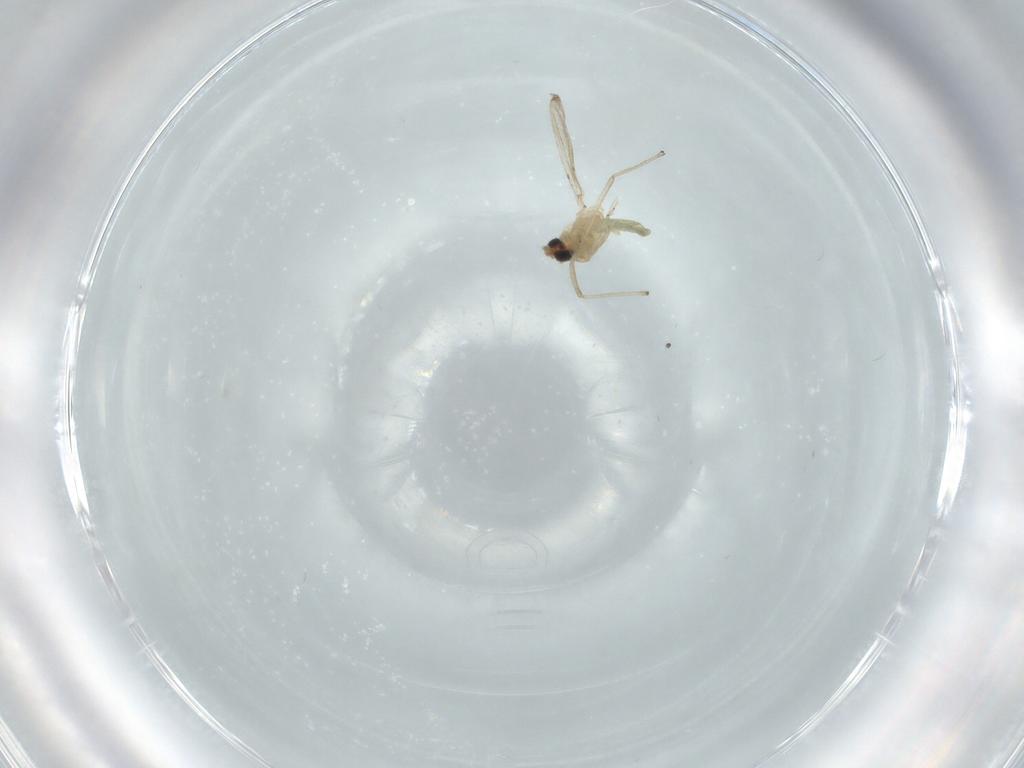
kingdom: Animalia
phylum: Arthropoda
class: Insecta
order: Diptera
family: Chironomidae
